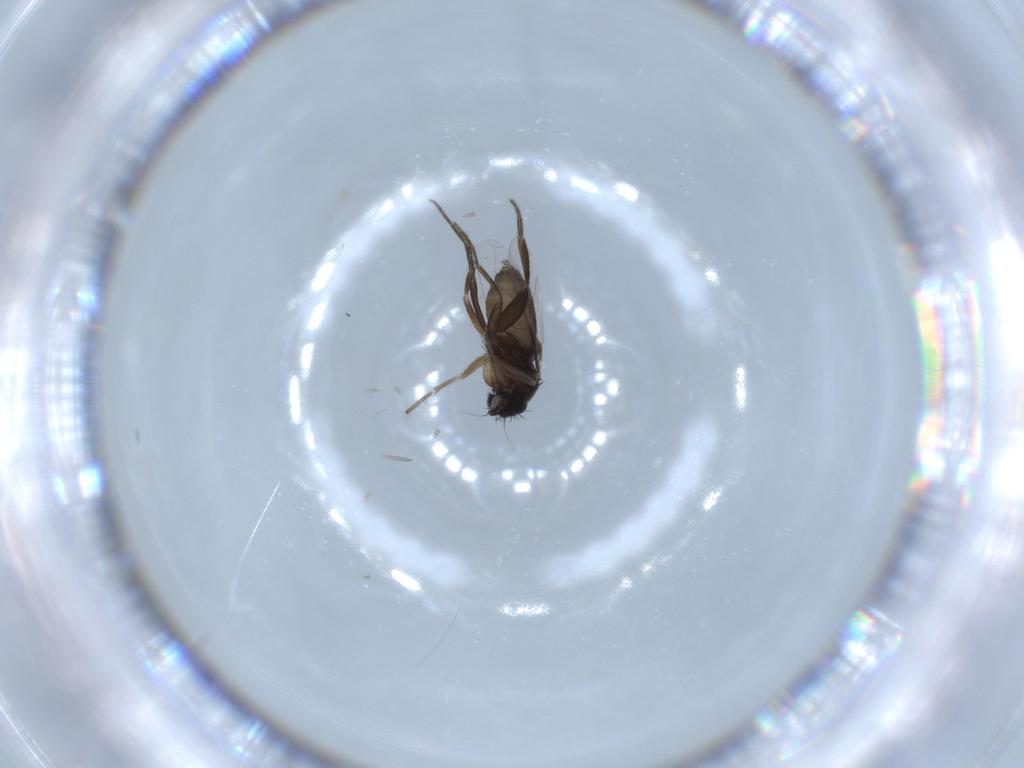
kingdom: Animalia
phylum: Arthropoda
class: Insecta
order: Diptera
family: Phoridae
